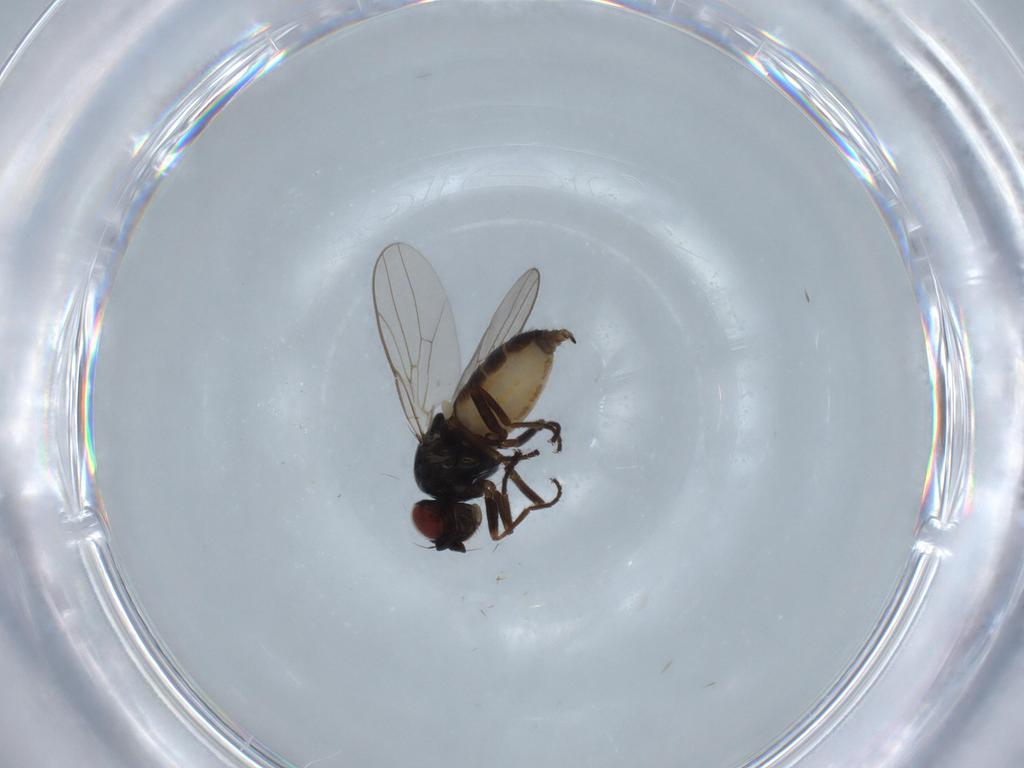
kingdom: Animalia
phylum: Arthropoda
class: Insecta
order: Diptera
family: Chloropidae
